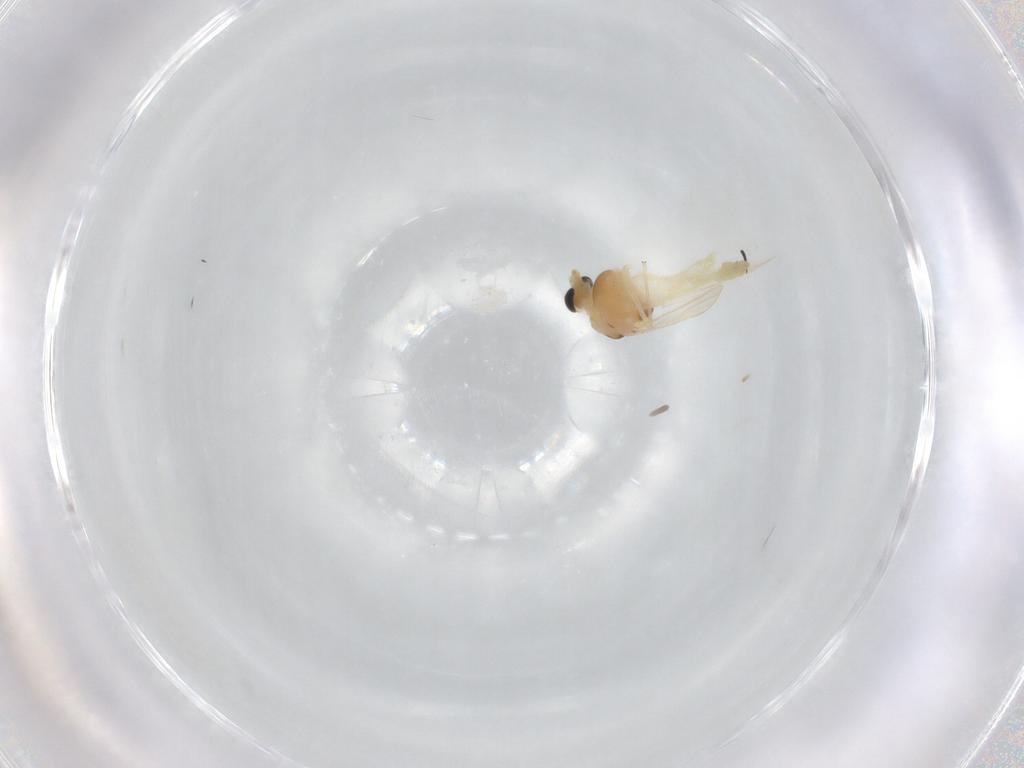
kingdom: Animalia
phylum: Arthropoda
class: Insecta
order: Diptera
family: Chironomidae
